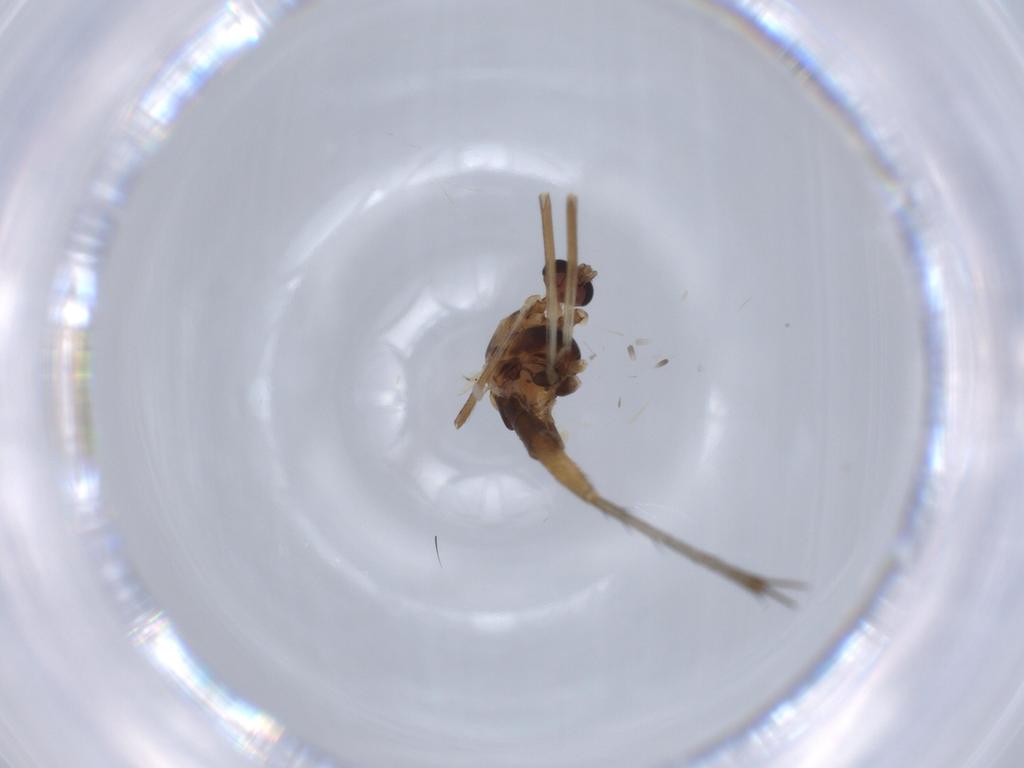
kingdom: Animalia
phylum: Arthropoda
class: Insecta
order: Diptera
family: Chironomidae
